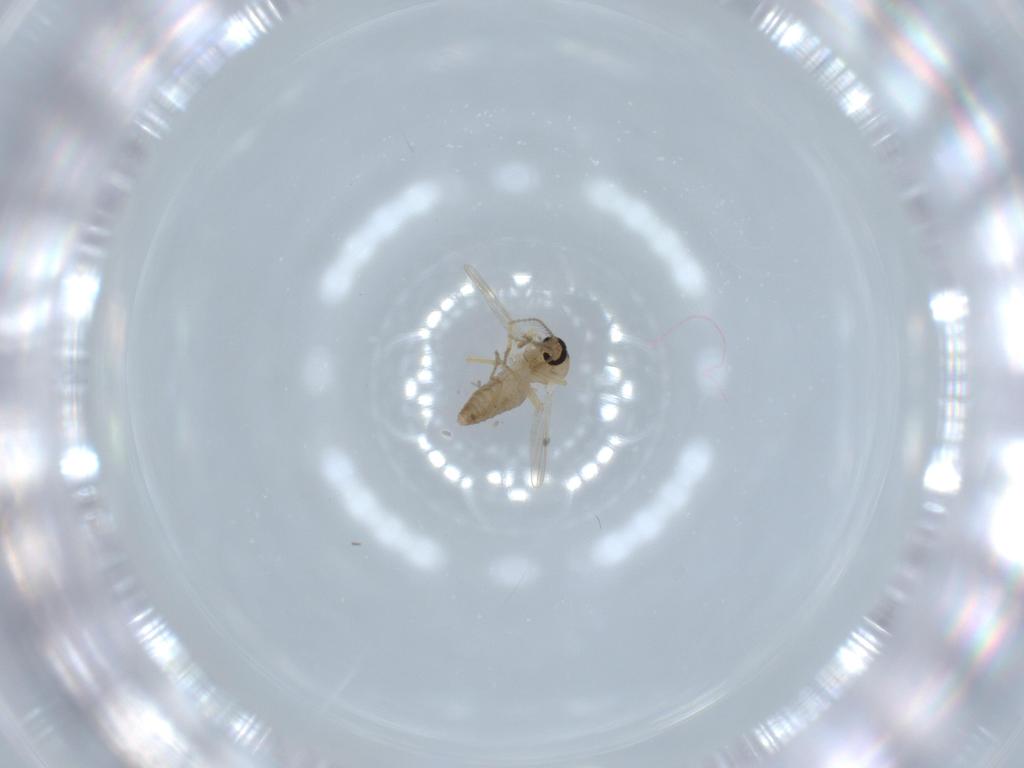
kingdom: Animalia
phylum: Arthropoda
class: Insecta
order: Diptera
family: Ceratopogonidae
